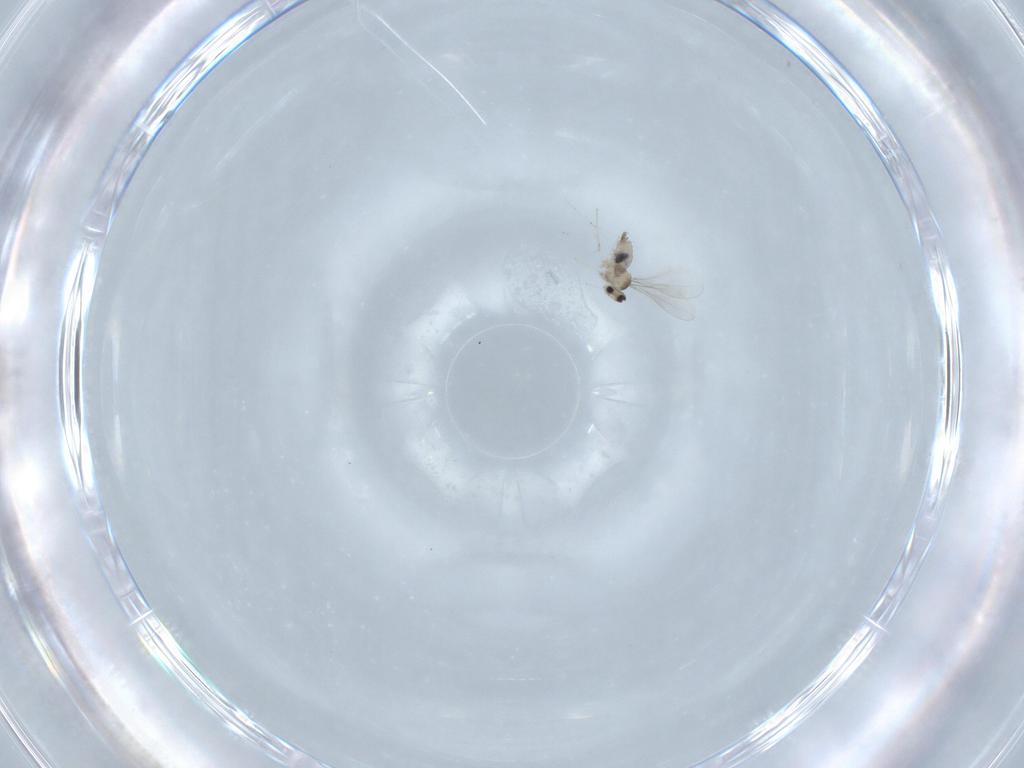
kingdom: Animalia
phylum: Arthropoda
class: Insecta
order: Diptera
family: Cecidomyiidae
